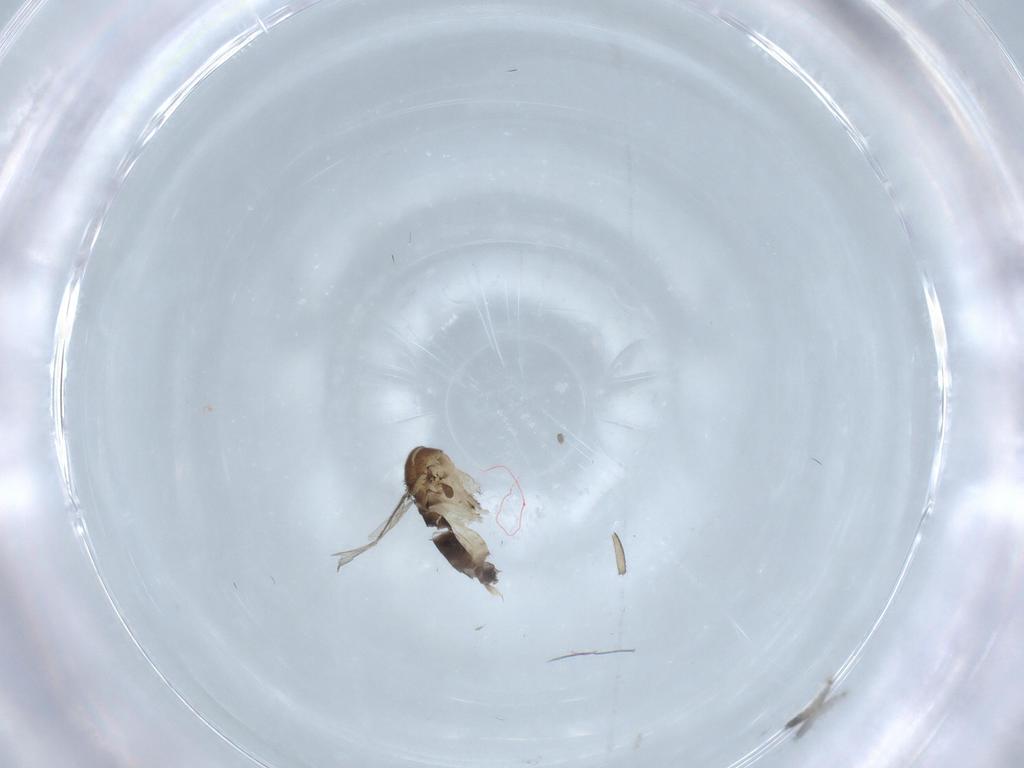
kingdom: Animalia
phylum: Arthropoda
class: Insecta
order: Diptera
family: Phoridae
